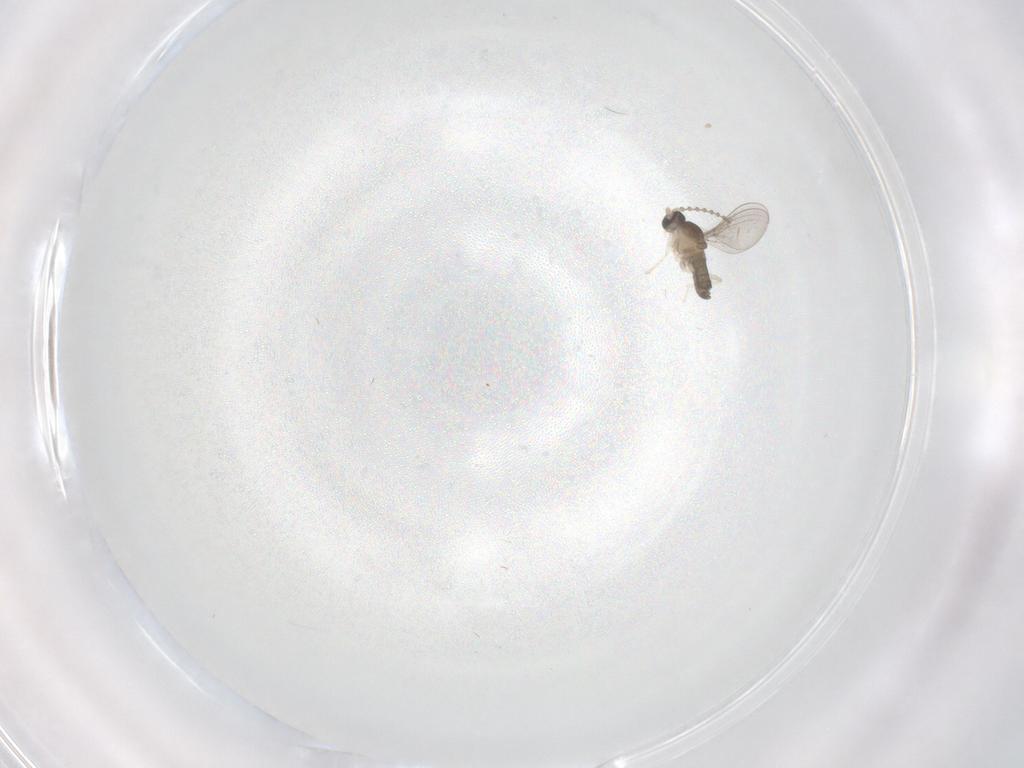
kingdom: Animalia
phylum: Arthropoda
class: Insecta
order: Diptera
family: Cecidomyiidae
